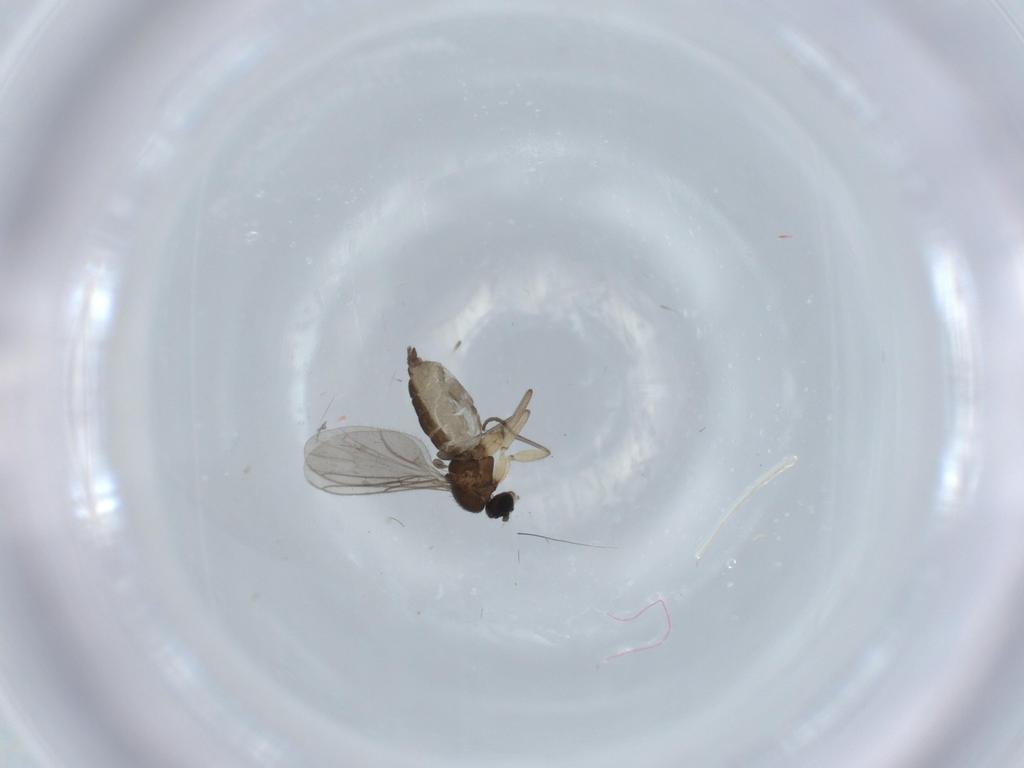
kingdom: Animalia
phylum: Arthropoda
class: Insecta
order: Diptera
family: Sciaridae
